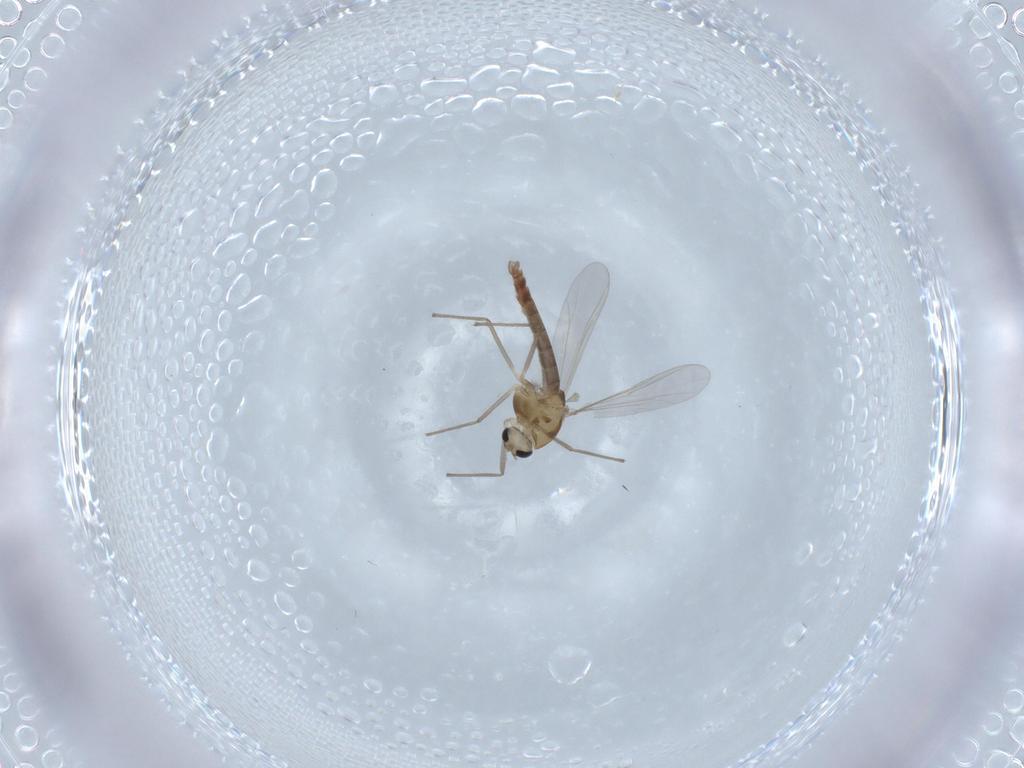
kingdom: Animalia
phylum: Arthropoda
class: Insecta
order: Diptera
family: Chironomidae
